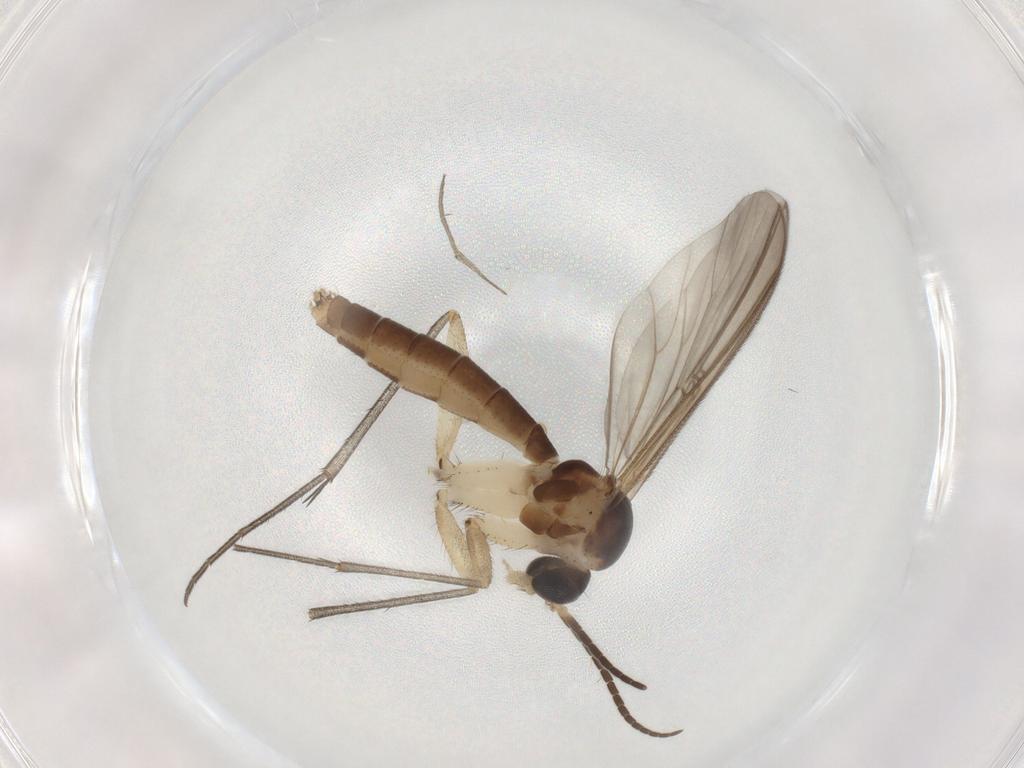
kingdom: Animalia
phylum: Arthropoda
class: Insecta
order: Diptera
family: Mycetophilidae
